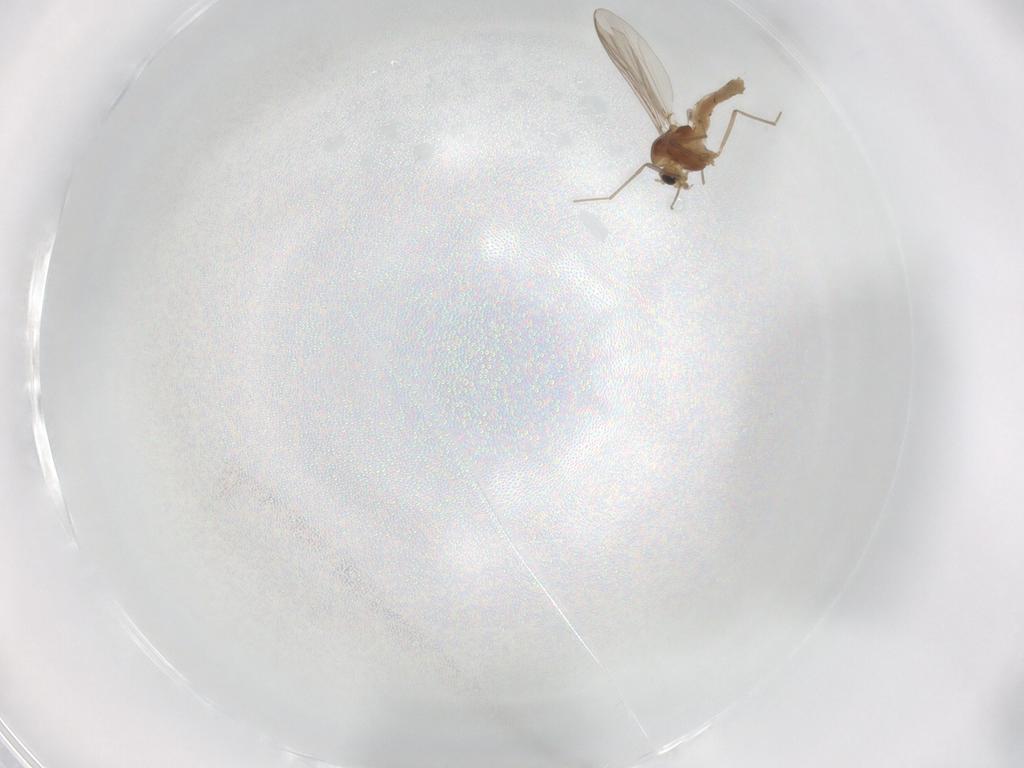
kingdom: Animalia
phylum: Arthropoda
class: Insecta
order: Diptera
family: Chironomidae
